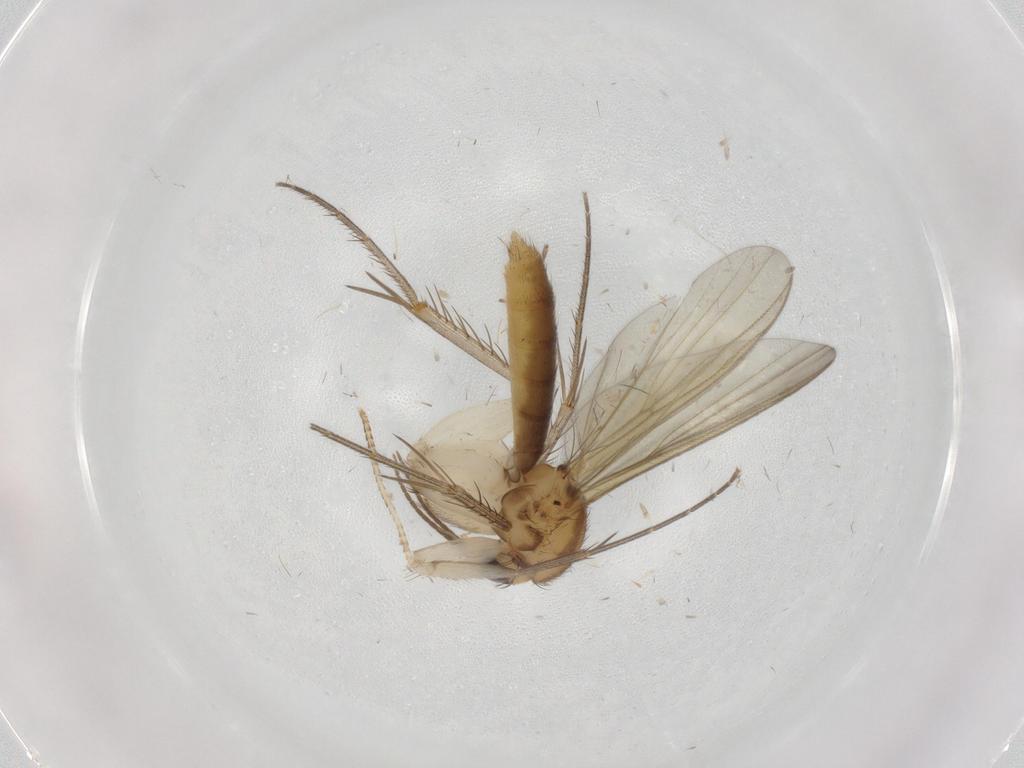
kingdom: Animalia
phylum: Arthropoda
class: Insecta
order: Diptera
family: Mycetophilidae
